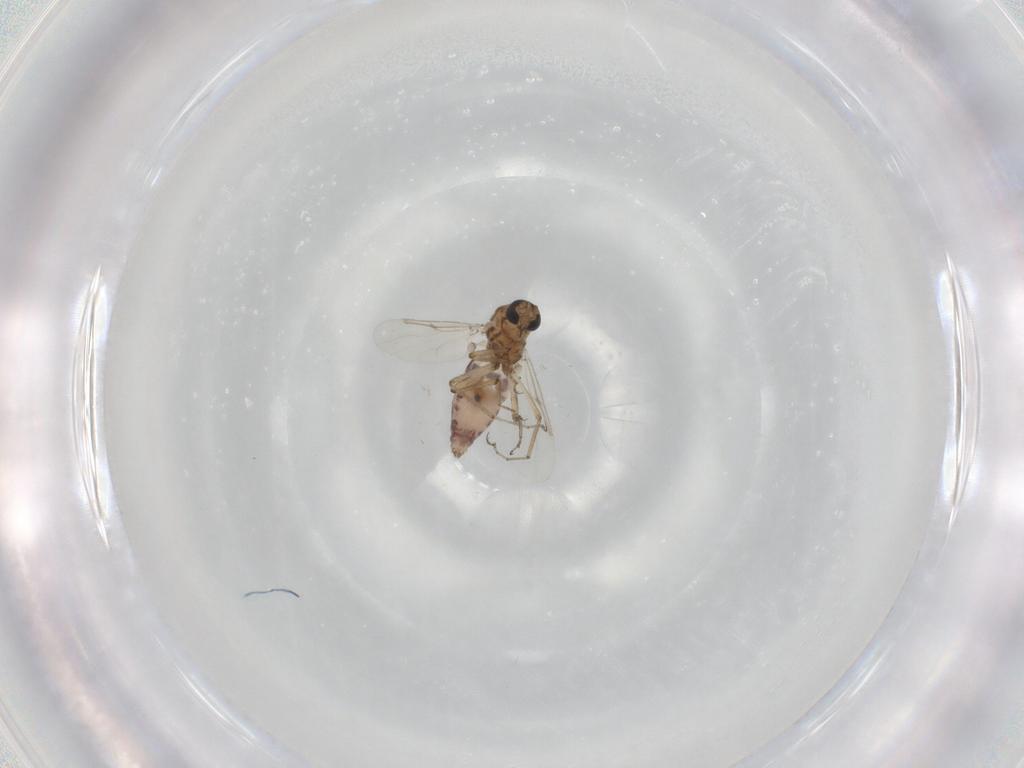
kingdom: Animalia
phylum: Arthropoda
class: Insecta
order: Diptera
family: Ceratopogonidae
